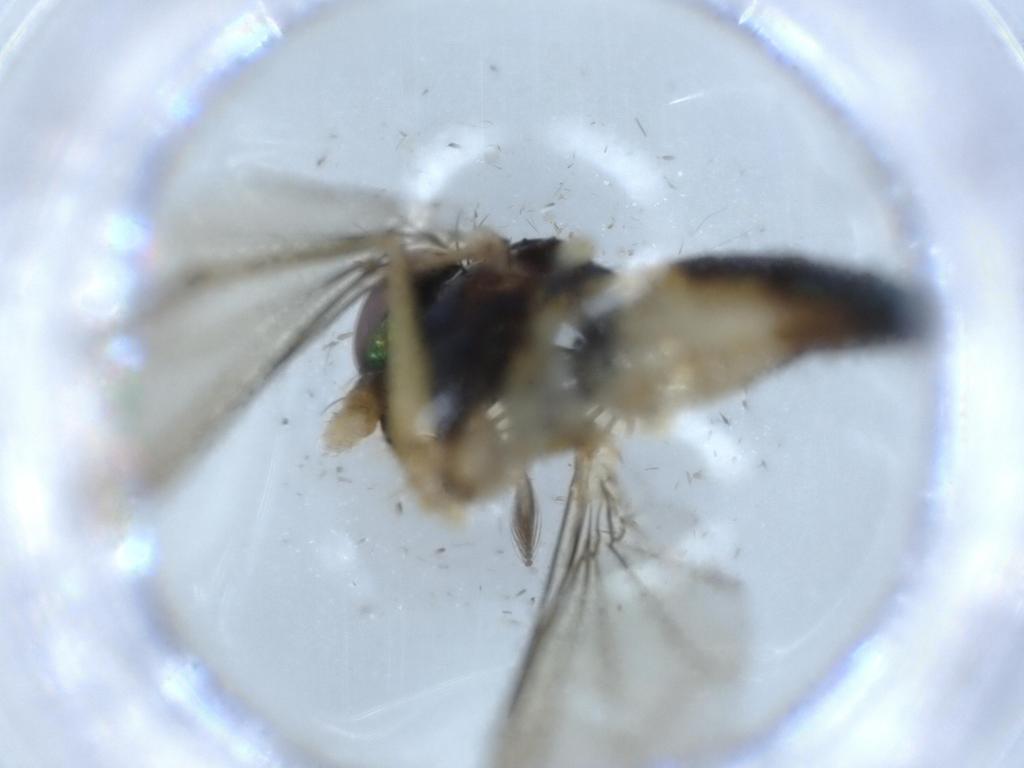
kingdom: Animalia
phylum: Arthropoda
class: Insecta
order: Diptera
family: Dolichopodidae
